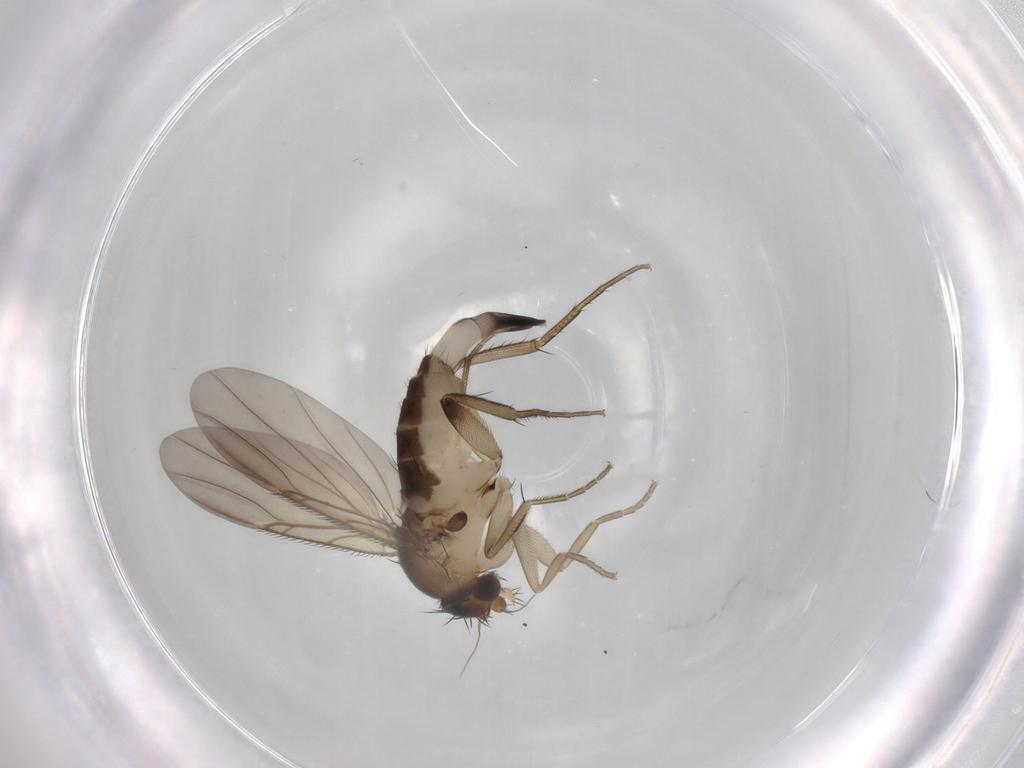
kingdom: Animalia
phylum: Arthropoda
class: Insecta
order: Diptera
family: Phoridae
